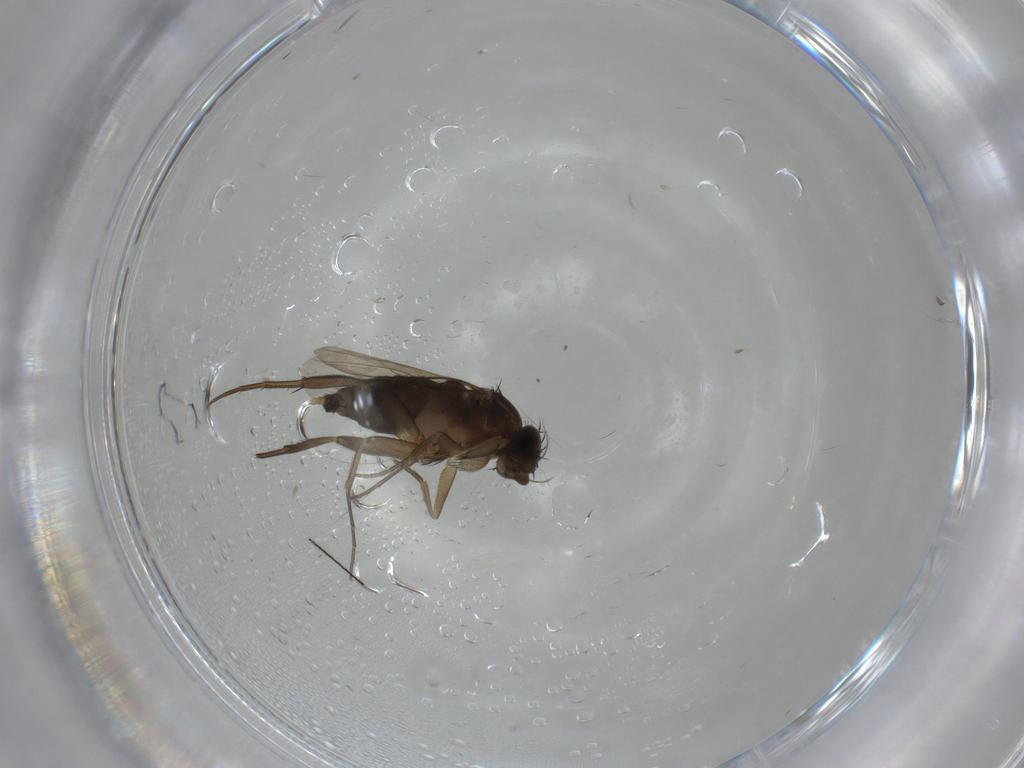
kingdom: Animalia
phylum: Arthropoda
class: Insecta
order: Diptera
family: Phoridae
